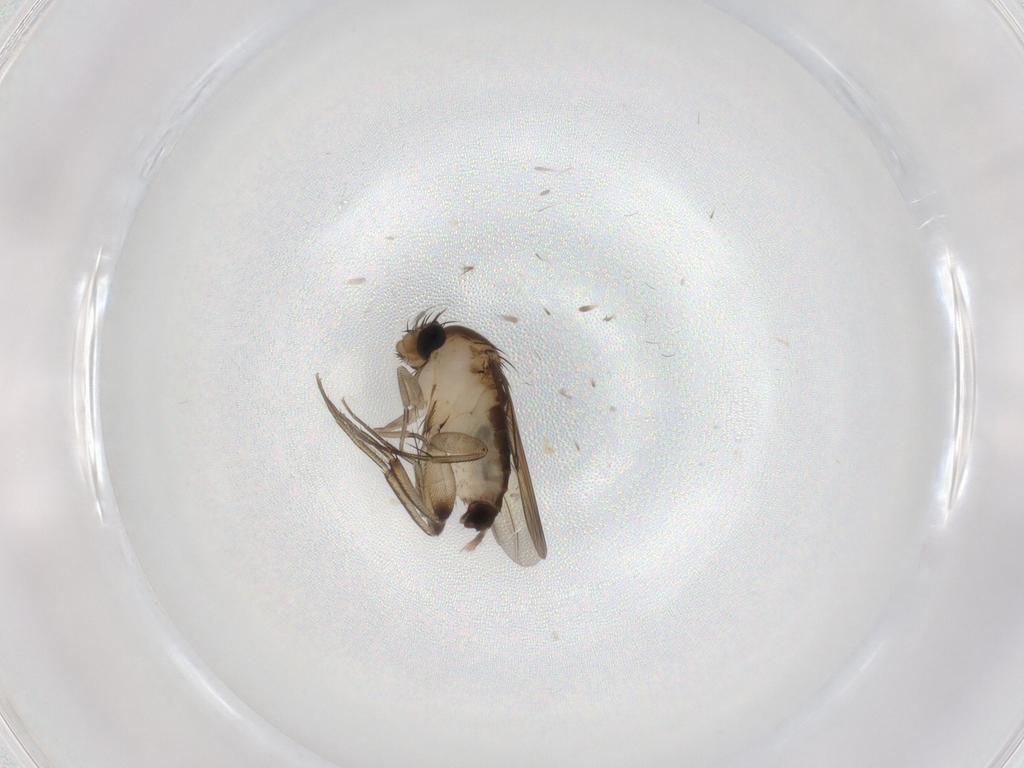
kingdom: Animalia
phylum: Arthropoda
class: Insecta
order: Diptera
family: Phoridae
